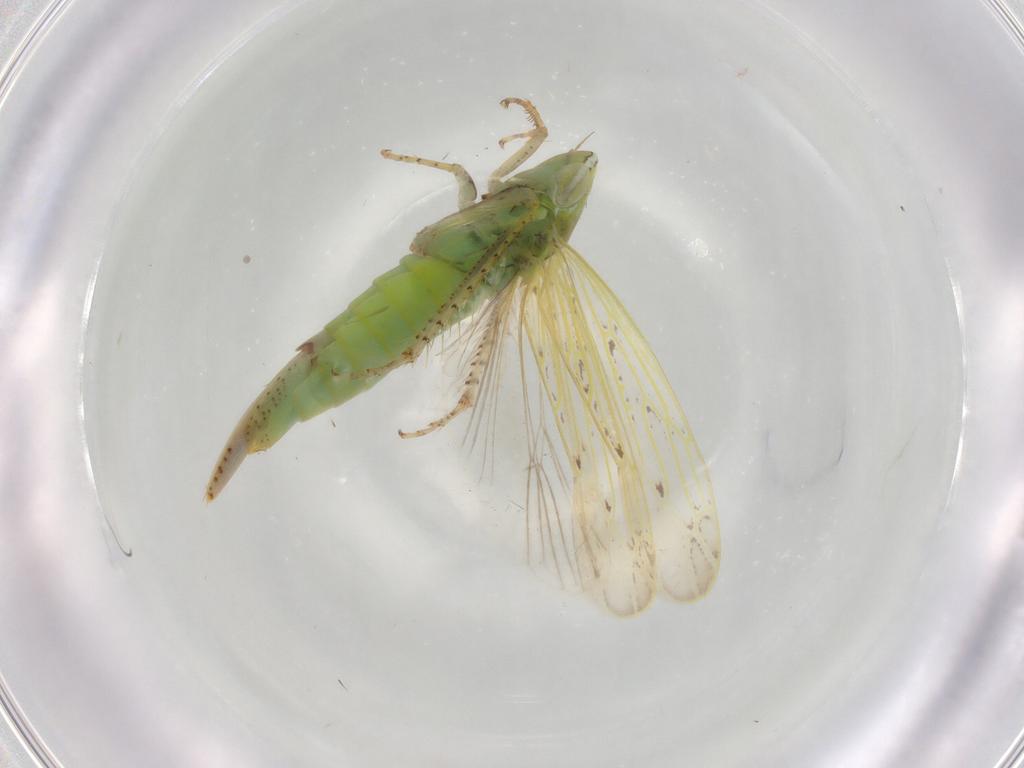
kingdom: Animalia
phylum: Arthropoda
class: Insecta
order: Hemiptera
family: Cicadellidae
